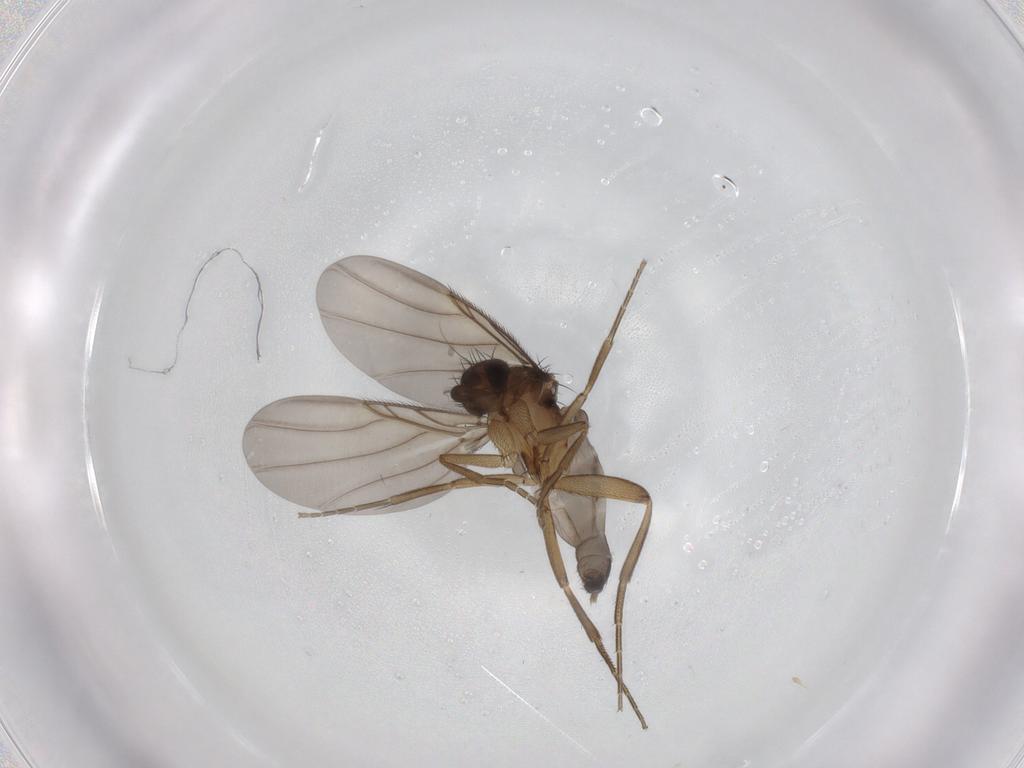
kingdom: Animalia
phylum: Arthropoda
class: Insecta
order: Diptera
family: Phoridae
